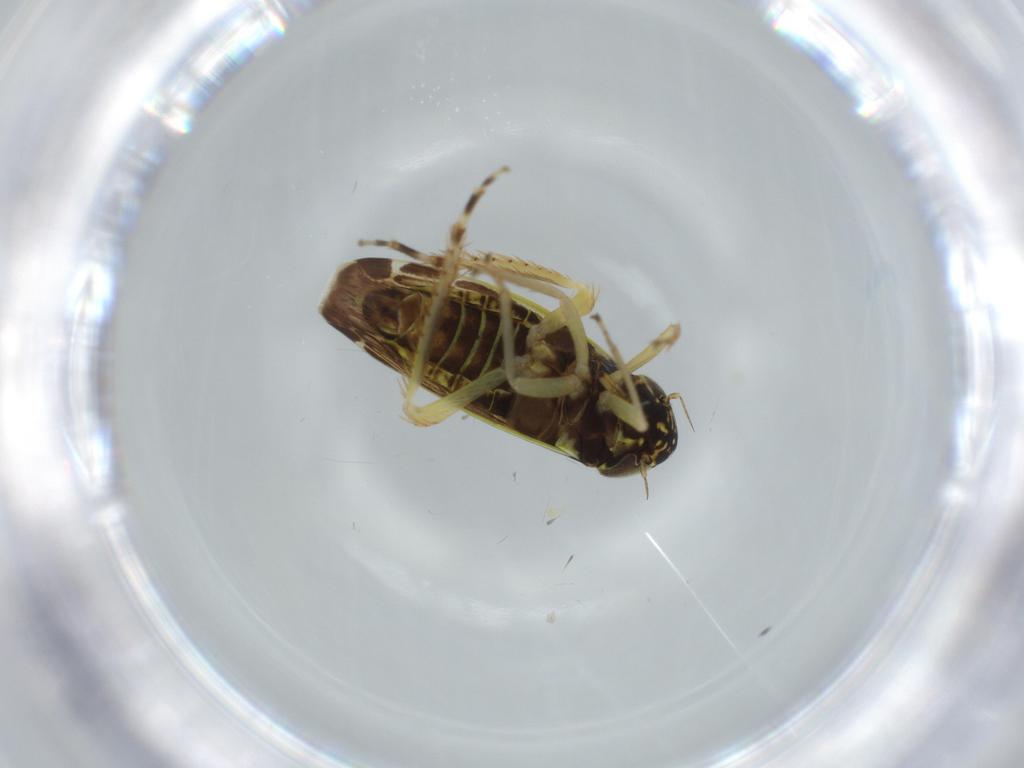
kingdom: Animalia
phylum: Arthropoda
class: Insecta
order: Hemiptera
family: Cicadellidae
